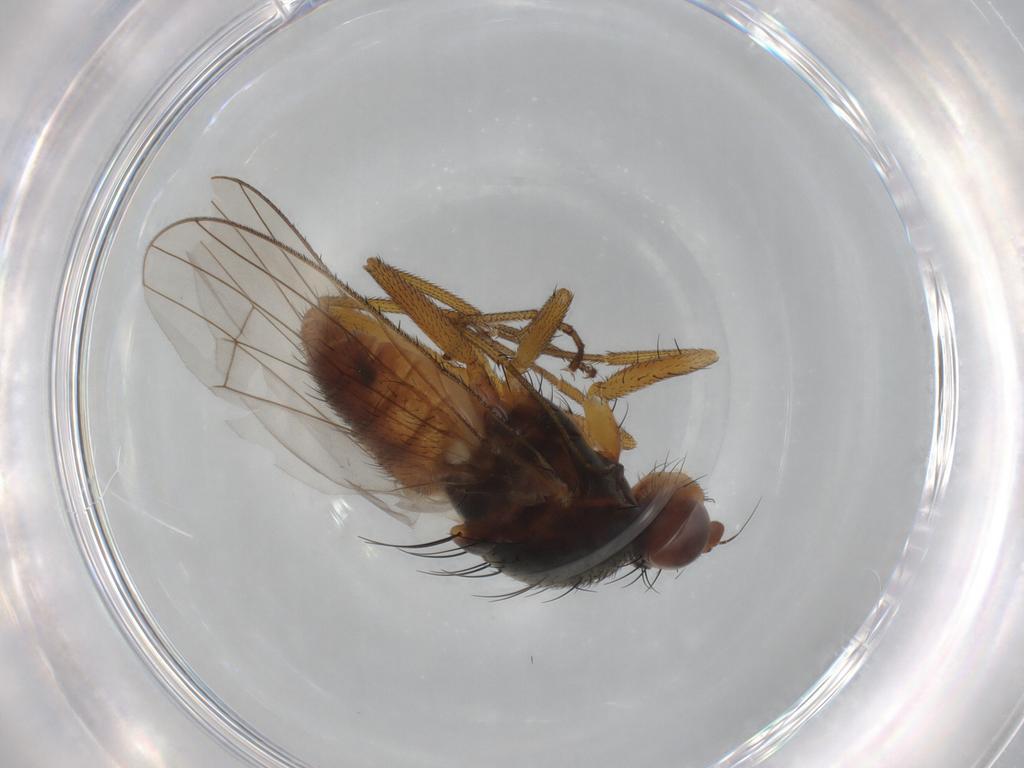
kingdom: Animalia
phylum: Arthropoda
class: Insecta
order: Diptera
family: Heleomyzidae
